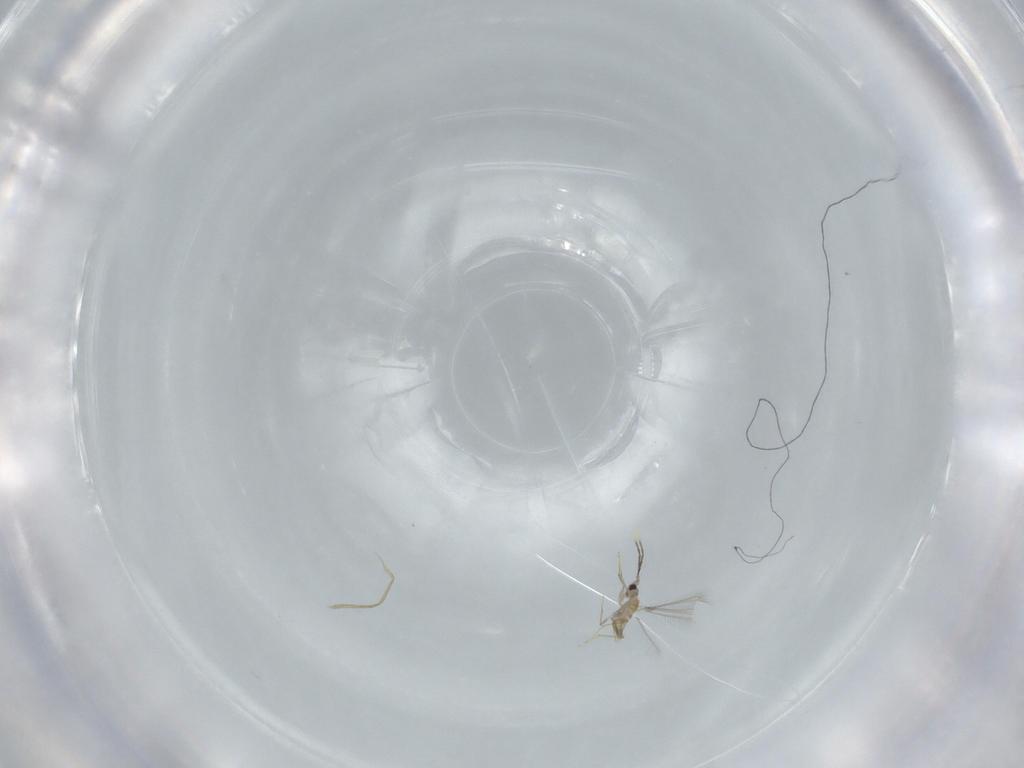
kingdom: Animalia
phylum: Arthropoda
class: Insecta
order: Hymenoptera
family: Mymaridae
